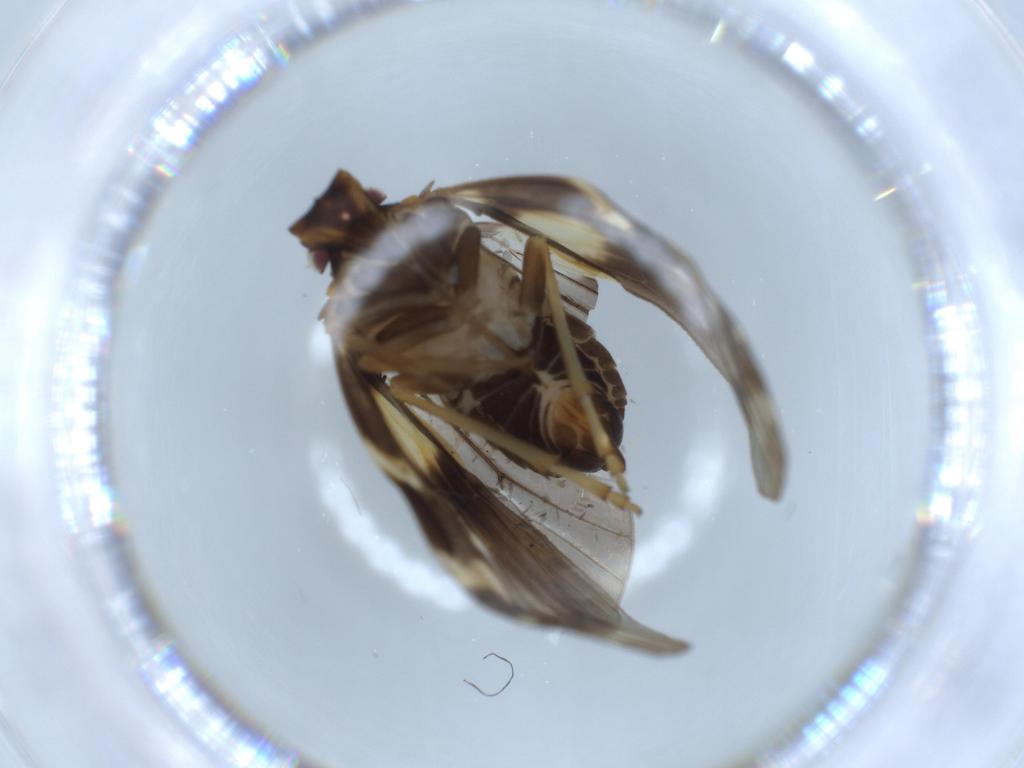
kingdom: Animalia
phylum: Arthropoda
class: Insecta
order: Hemiptera
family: Cixiidae
